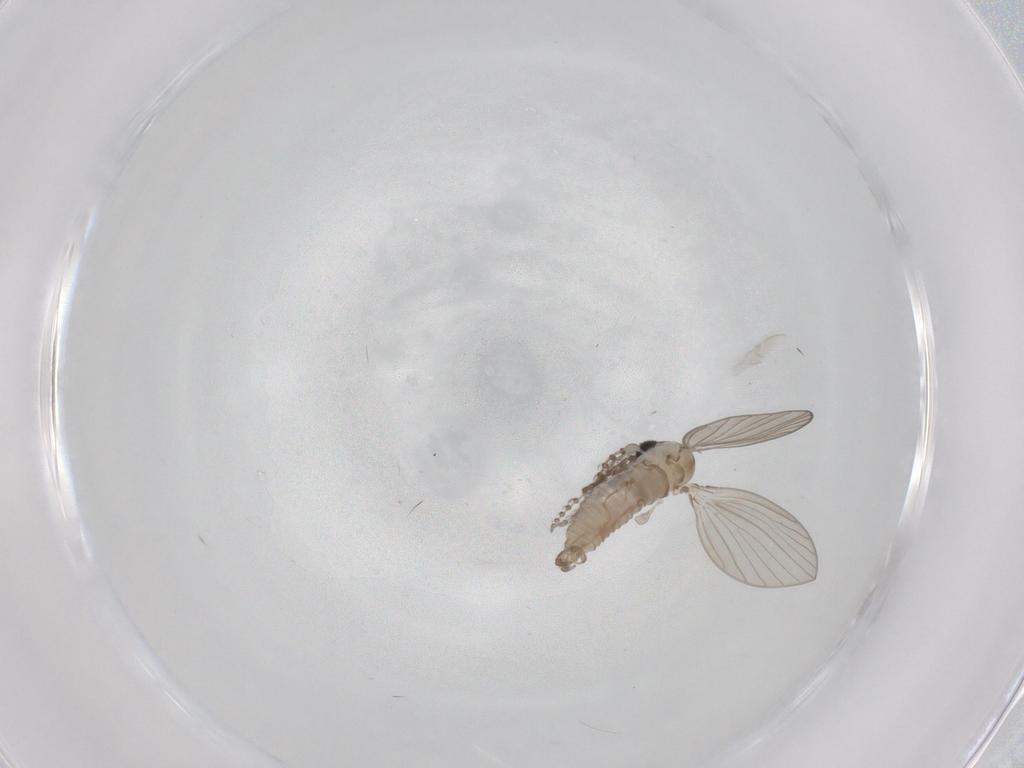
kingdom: Animalia
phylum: Arthropoda
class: Insecta
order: Diptera
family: Psychodidae
